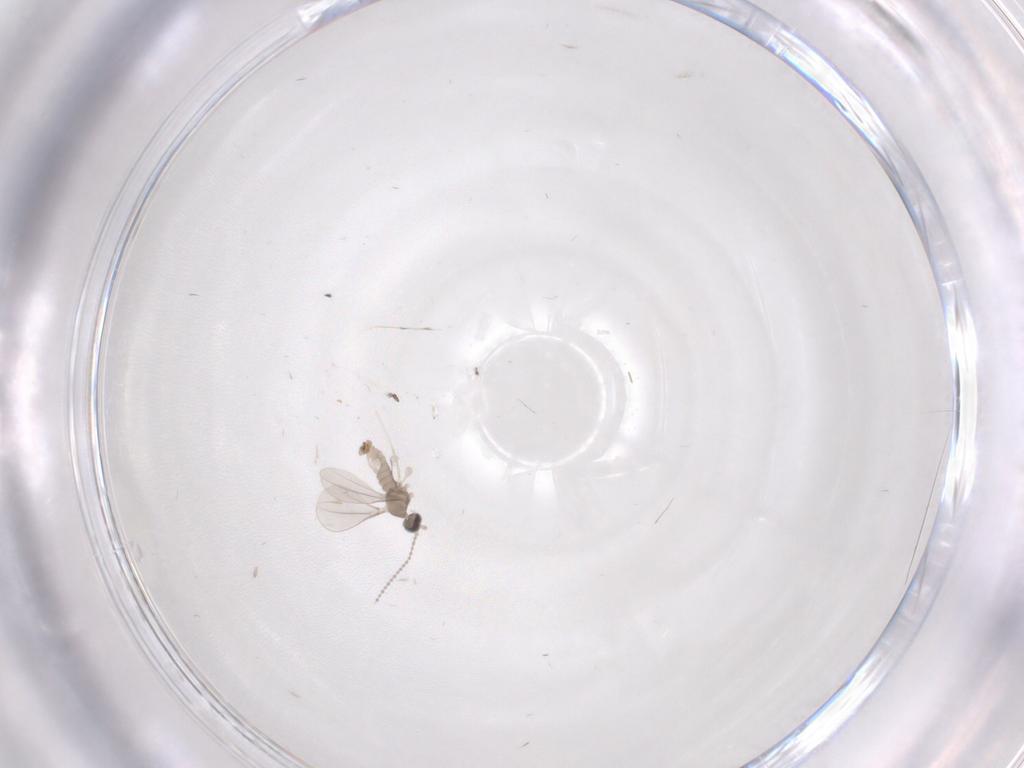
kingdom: Animalia
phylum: Arthropoda
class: Insecta
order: Diptera
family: Cecidomyiidae
